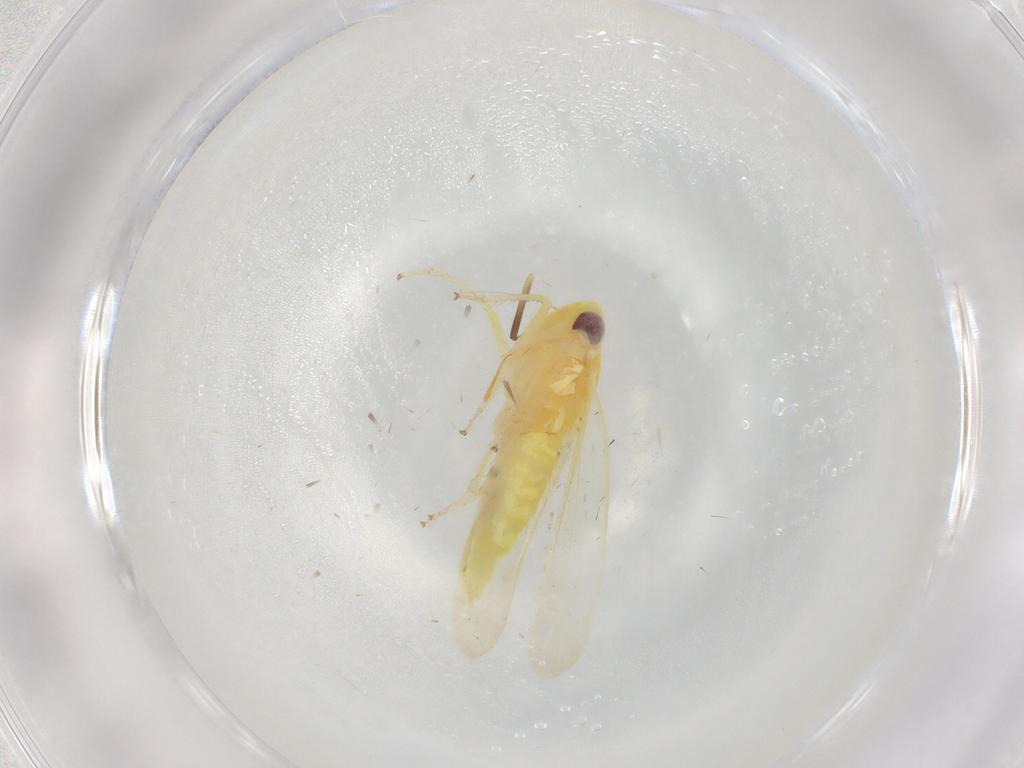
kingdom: Animalia
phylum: Arthropoda
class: Insecta
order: Hemiptera
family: Cicadellidae
